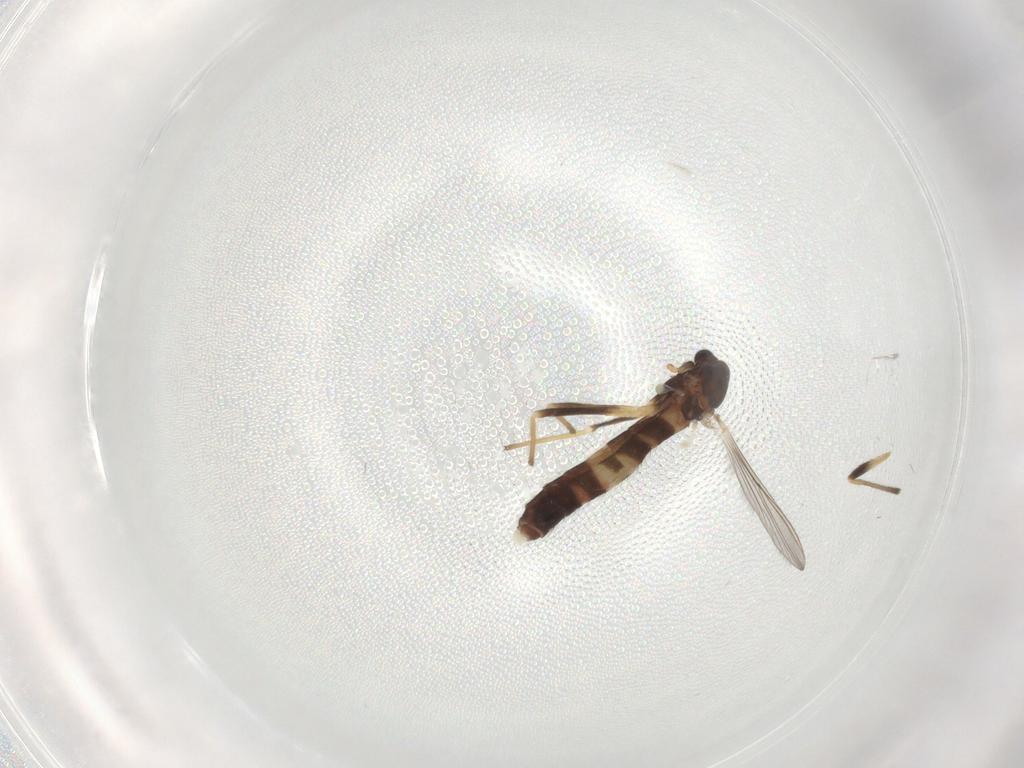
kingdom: Animalia
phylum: Arthropoda
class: Insecta
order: Diptera
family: Chironomidae
